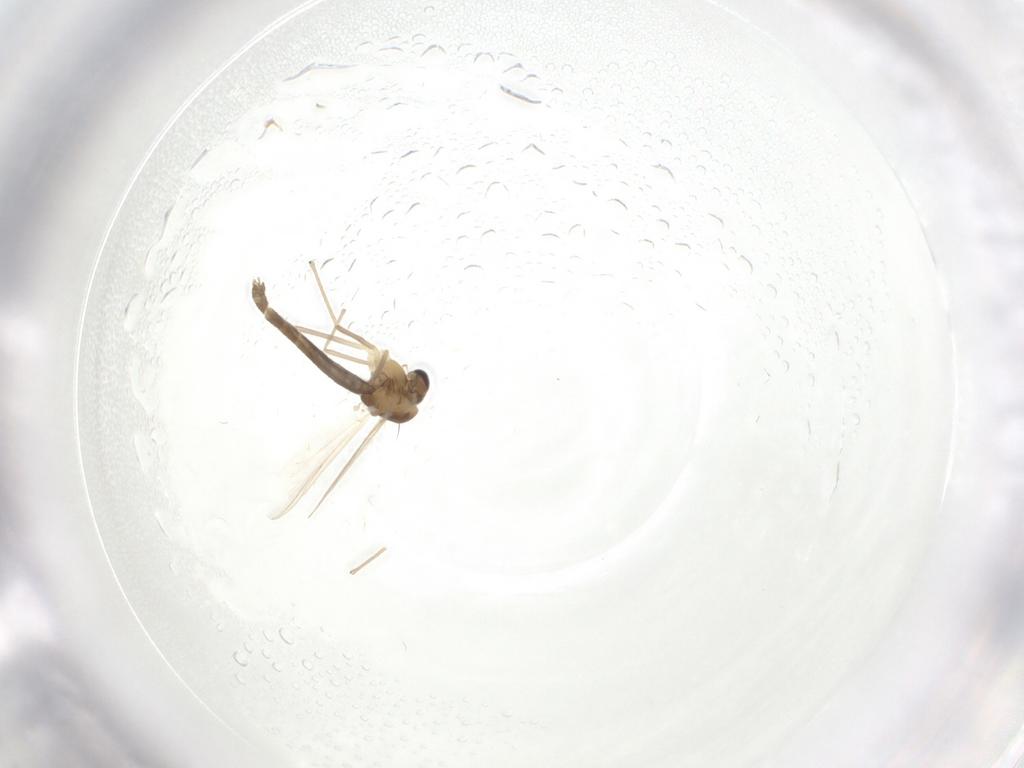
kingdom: Animalia
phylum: Arthropoda
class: Insecta
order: Diptera
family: Chironomidae
